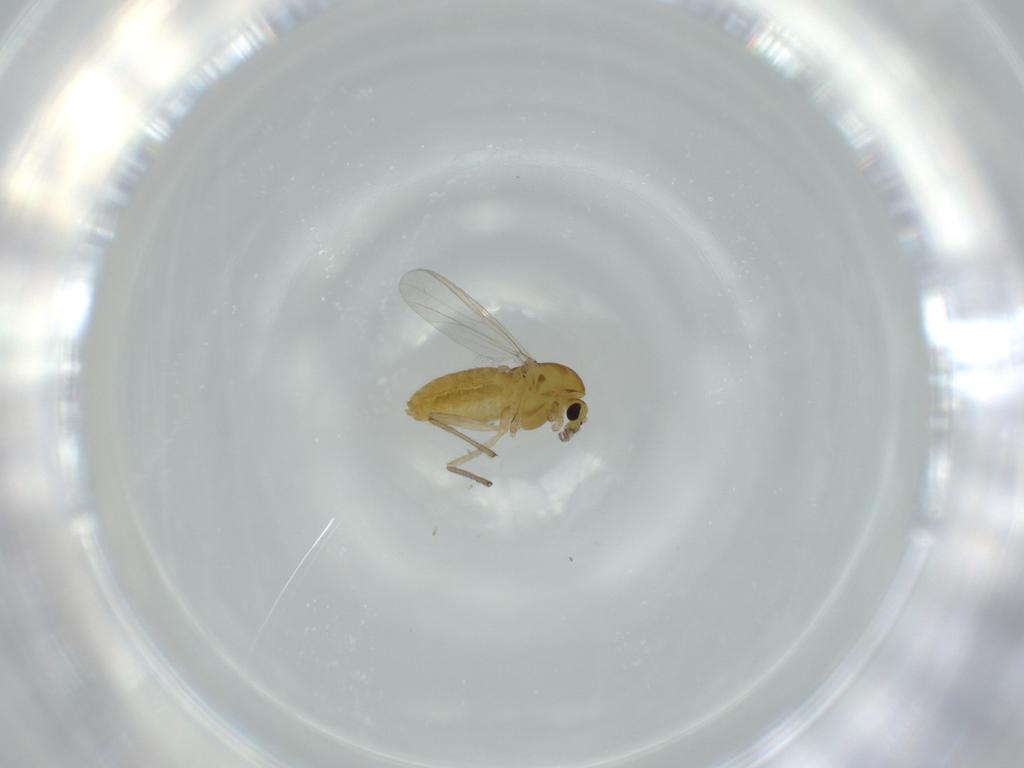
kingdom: Animalia
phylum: Arthropoda
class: Insecta
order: Diptera
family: Chironomidae
